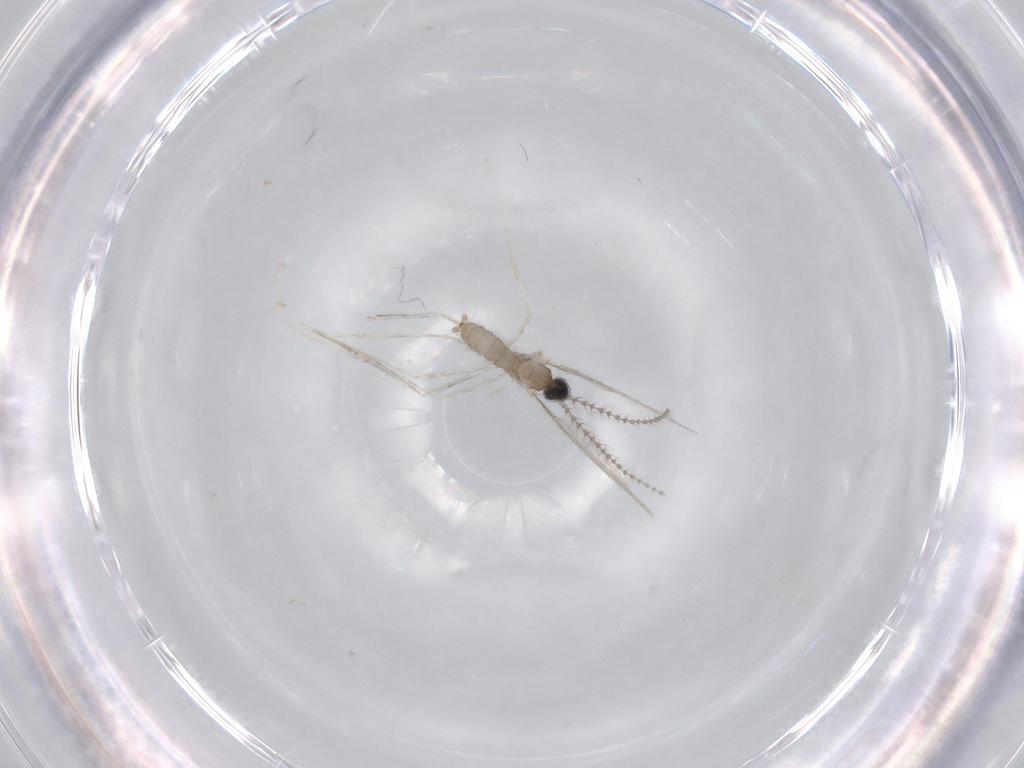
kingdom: Animalia
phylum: Arthropoda
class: Insecta
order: Diptera
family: Cecidomyiidae
